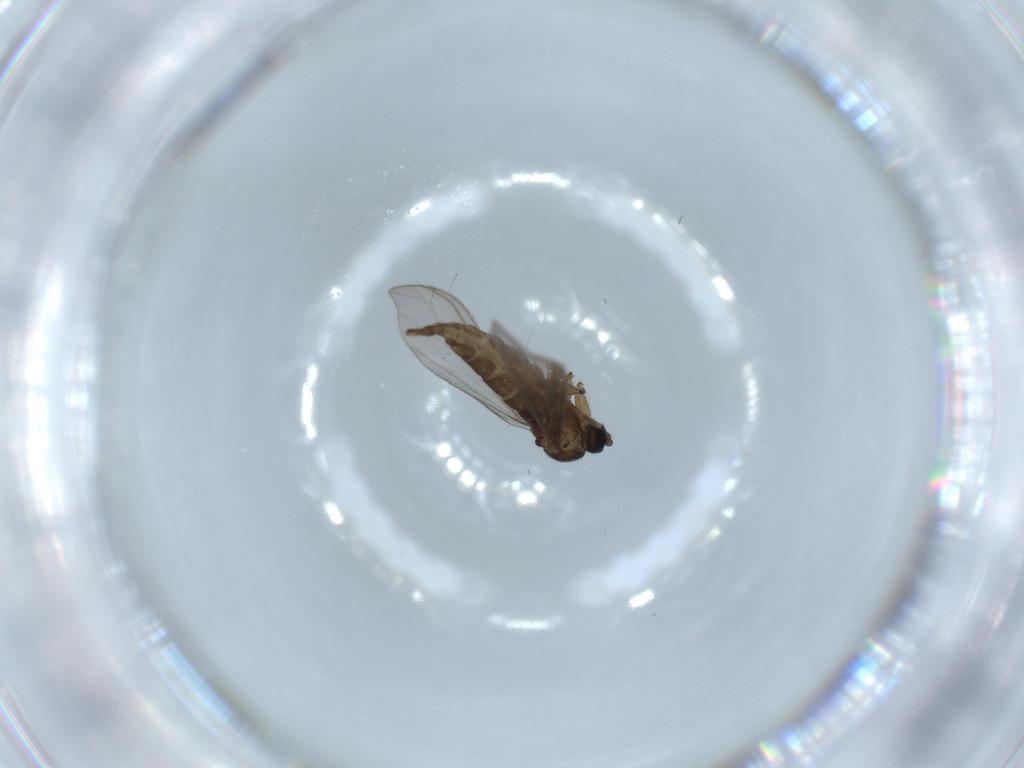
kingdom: Animalia
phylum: Arthropoda
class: Insecta
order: Diptera
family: Sciaridae
